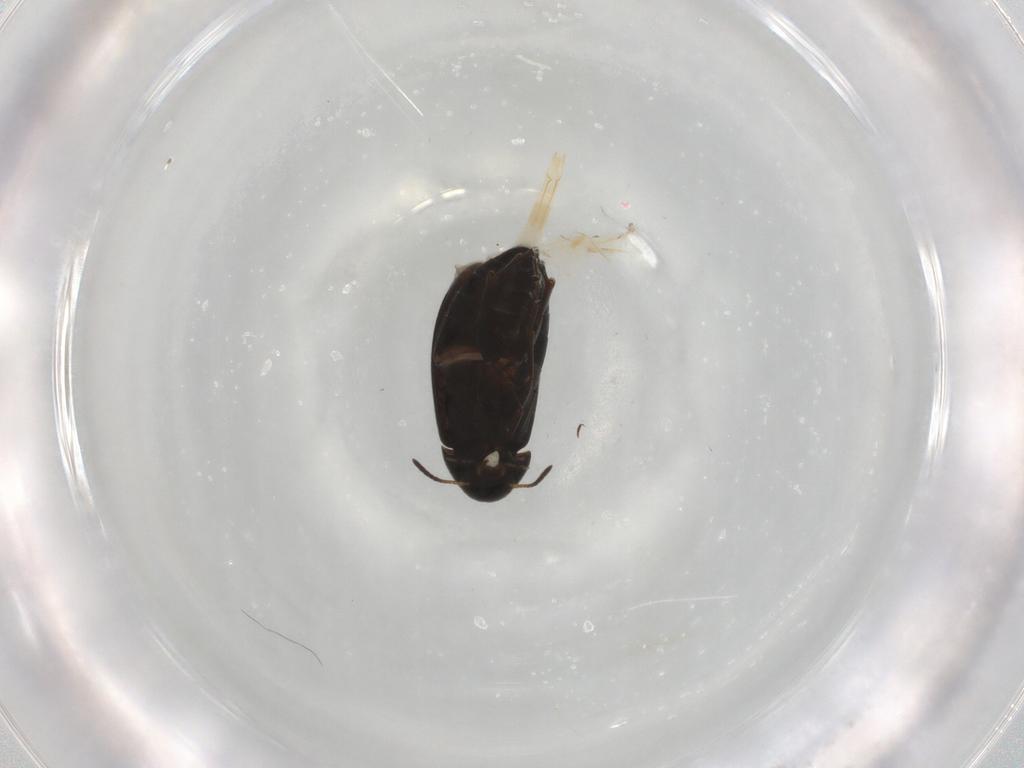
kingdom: Animalia
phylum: Arthropoda
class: Insecta
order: Coleoptera
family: Scraptiidae
